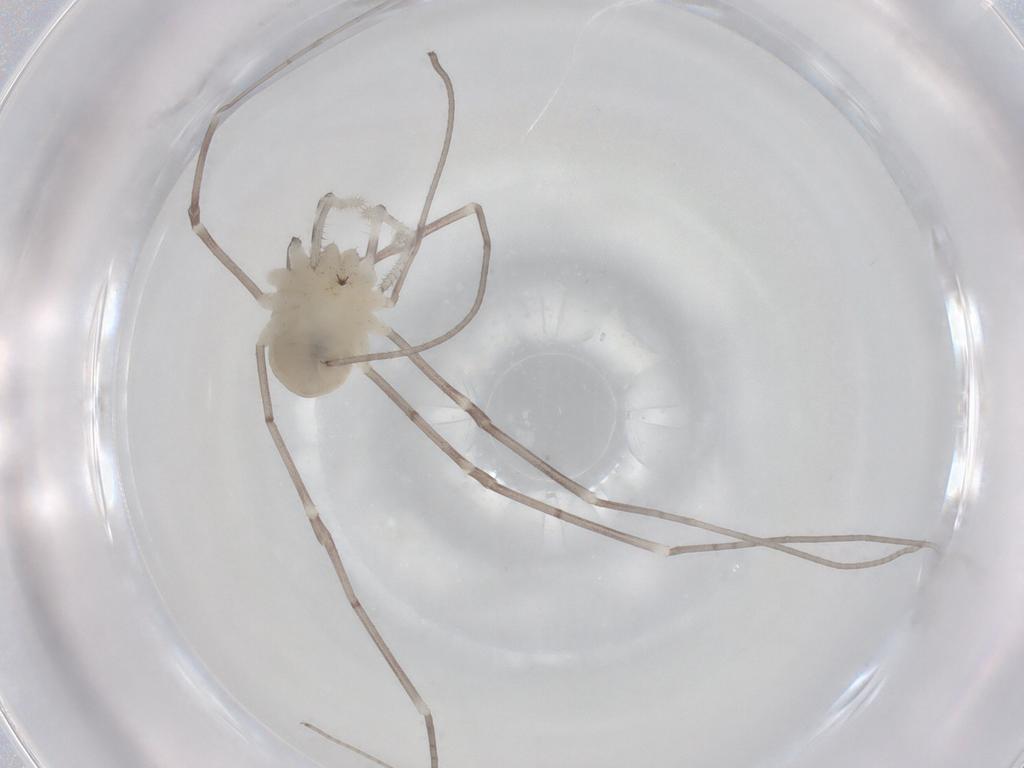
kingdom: Animalia
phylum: Arthropoda
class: Arachnida
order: Opiliones
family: Sclerosomatidae
